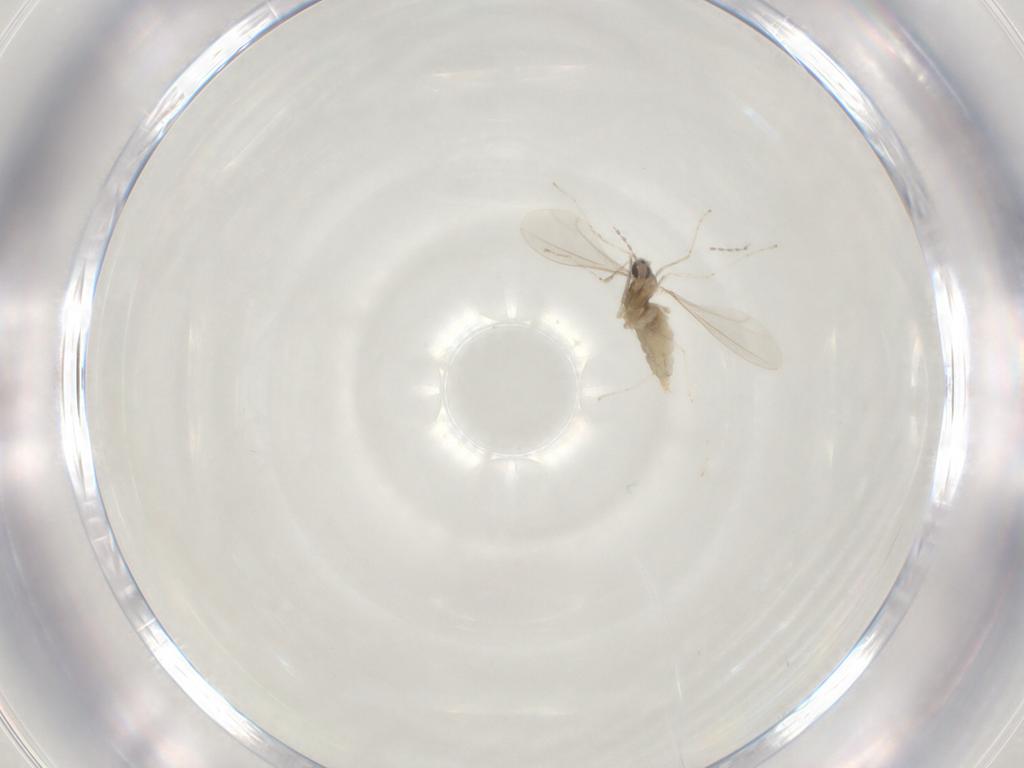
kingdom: Animalia
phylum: Arthropoda
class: Insecta
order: Diptera
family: Cecidomyiidae
